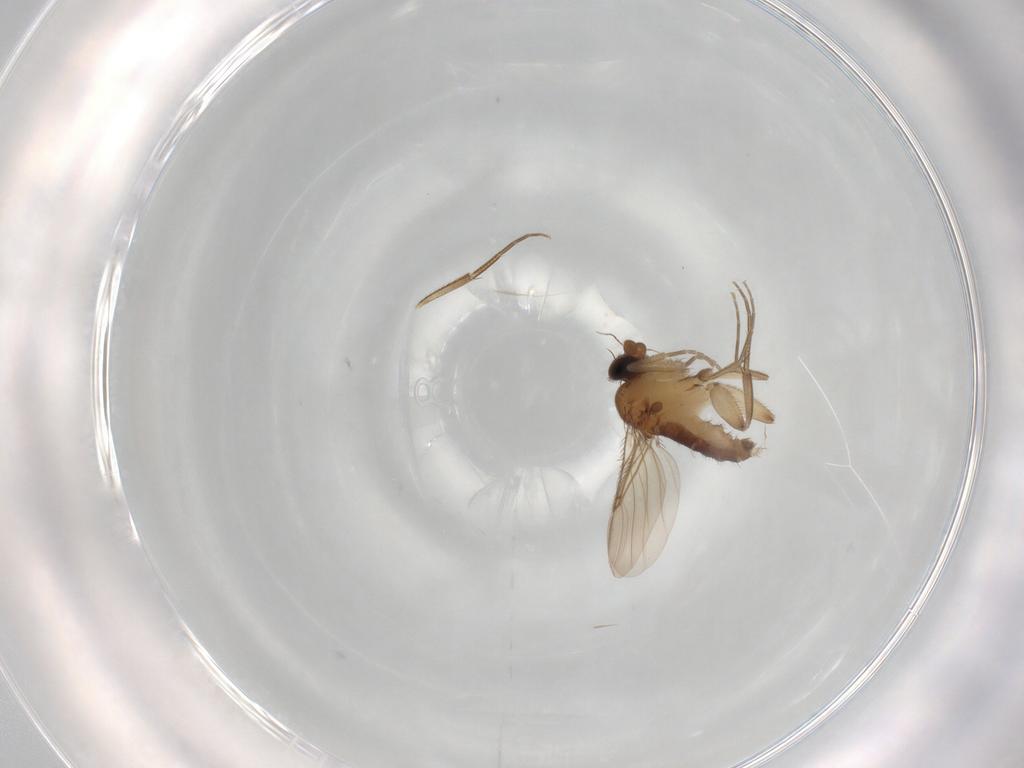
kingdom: Animalia
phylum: Arthropoda
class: Insecta
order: Diptera
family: Phoridae
